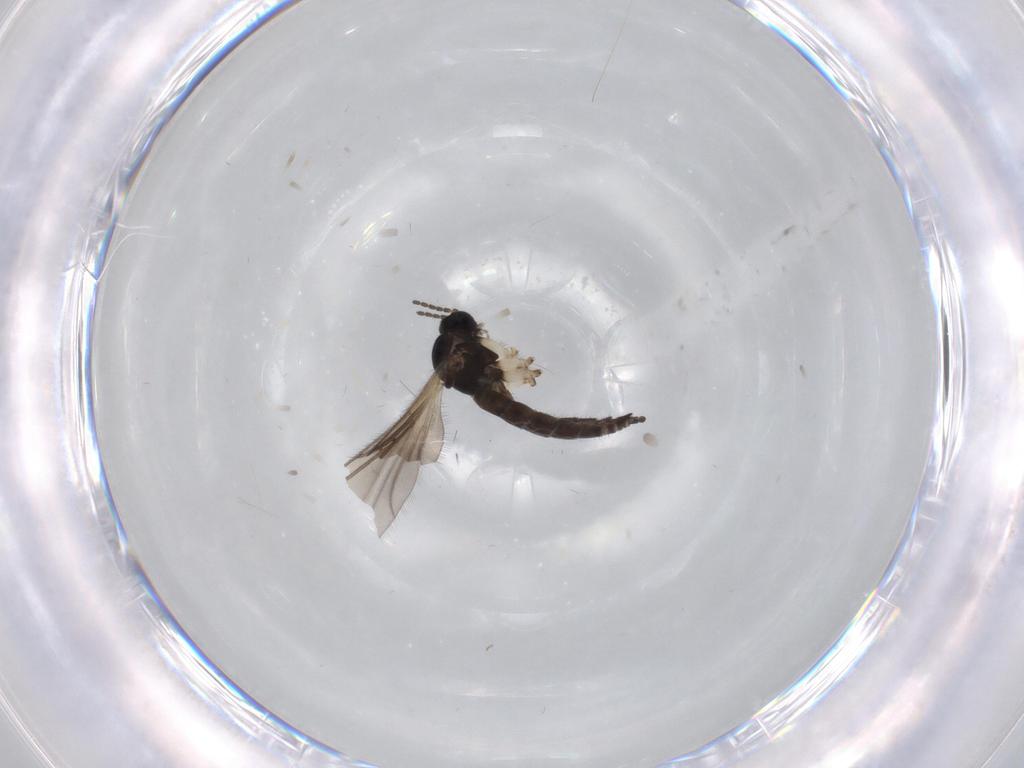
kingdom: Animalia
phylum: Arthropoda
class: Insecta
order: Diptera
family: Sciaridae
